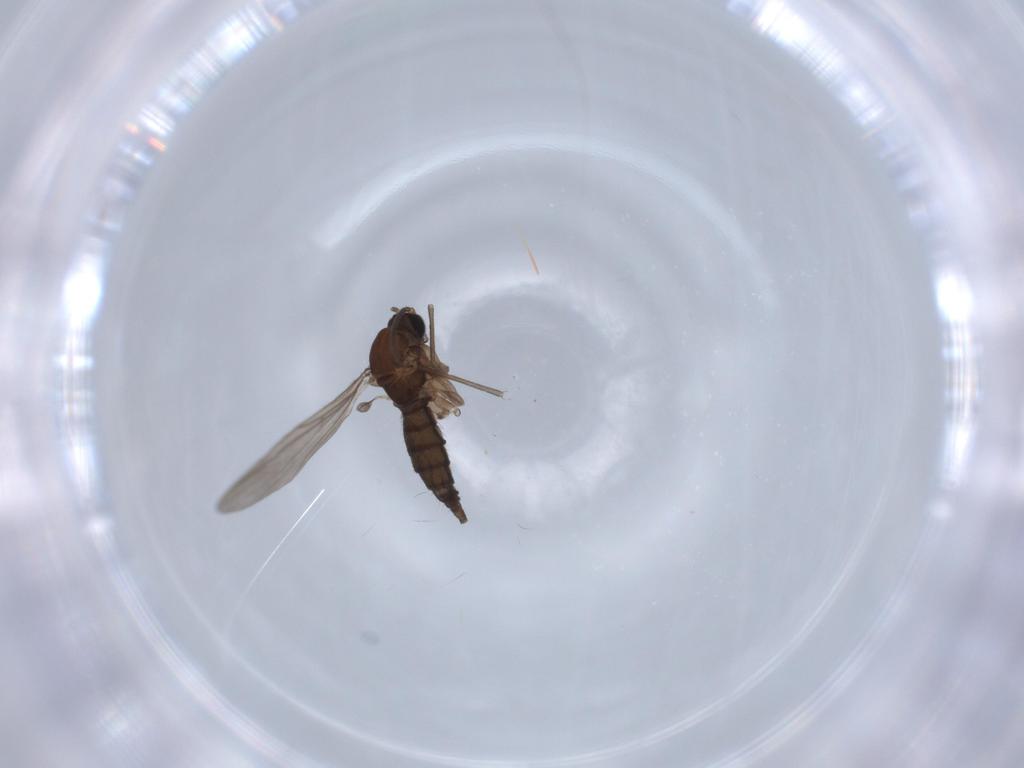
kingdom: Animalia
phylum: Arthropoda
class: Insecta
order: Diptera
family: Sciaridae
